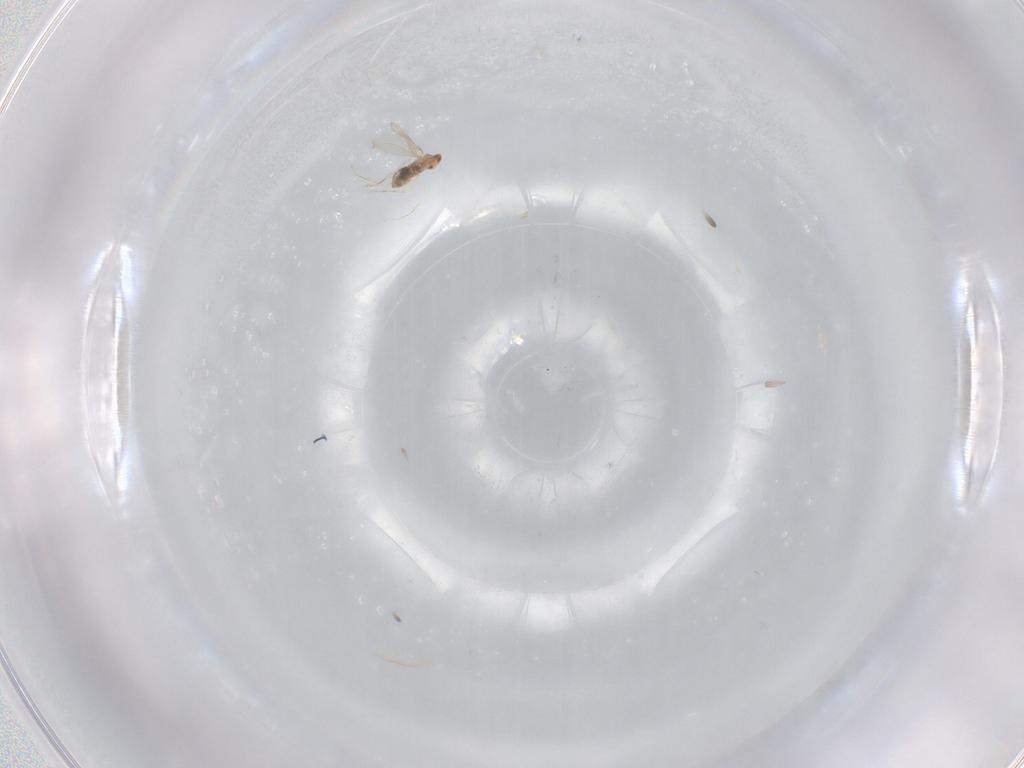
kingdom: Animalia
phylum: Arthropoda
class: Insecta
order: Diptera
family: Cecidomyiidae
